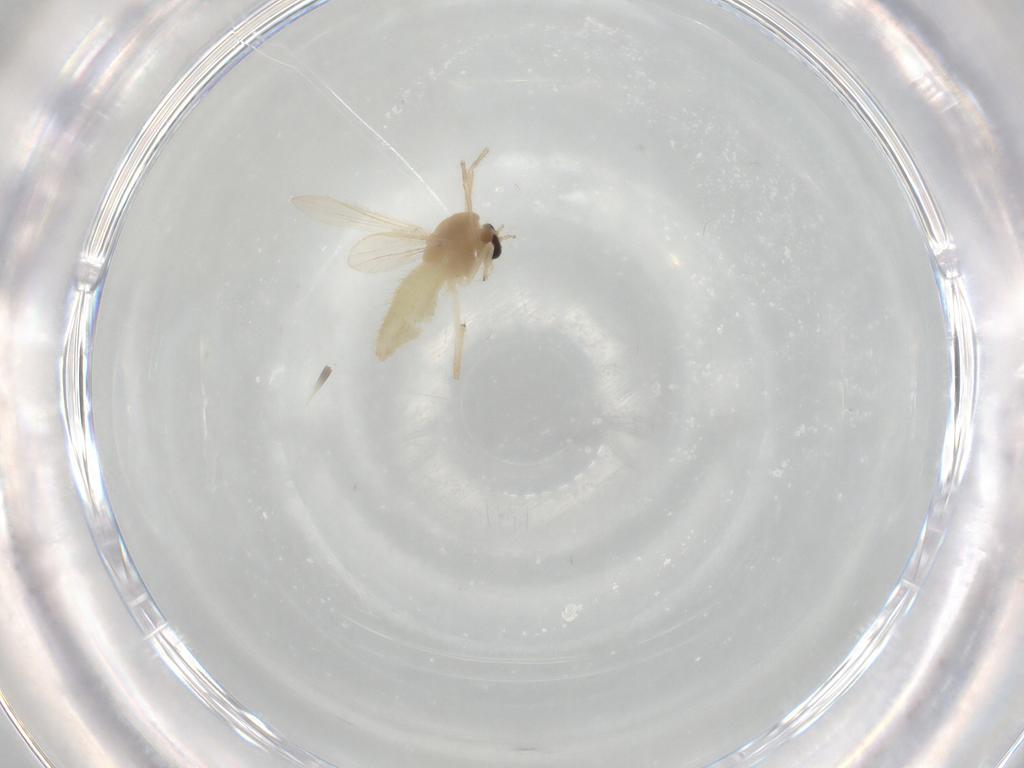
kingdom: Animalia
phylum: Arthropoda
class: Insecta
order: Diptera
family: Chironomidae
